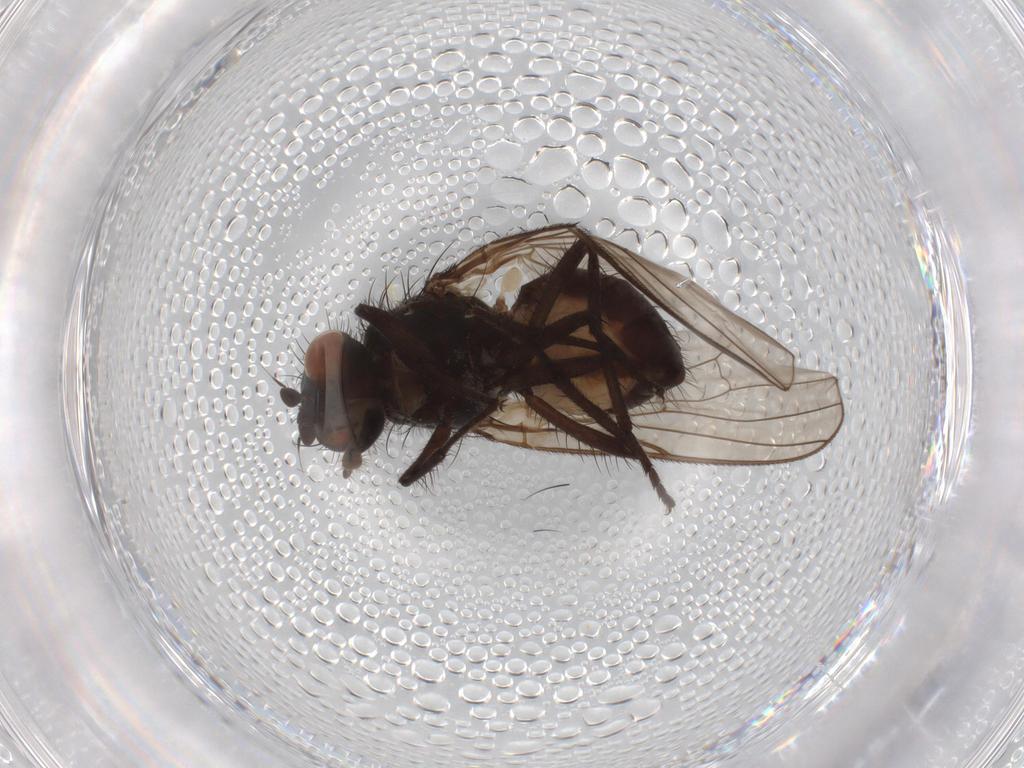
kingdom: Animalia
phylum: Arthropoda
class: Insecta
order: Diptera
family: Anthomyiidae
